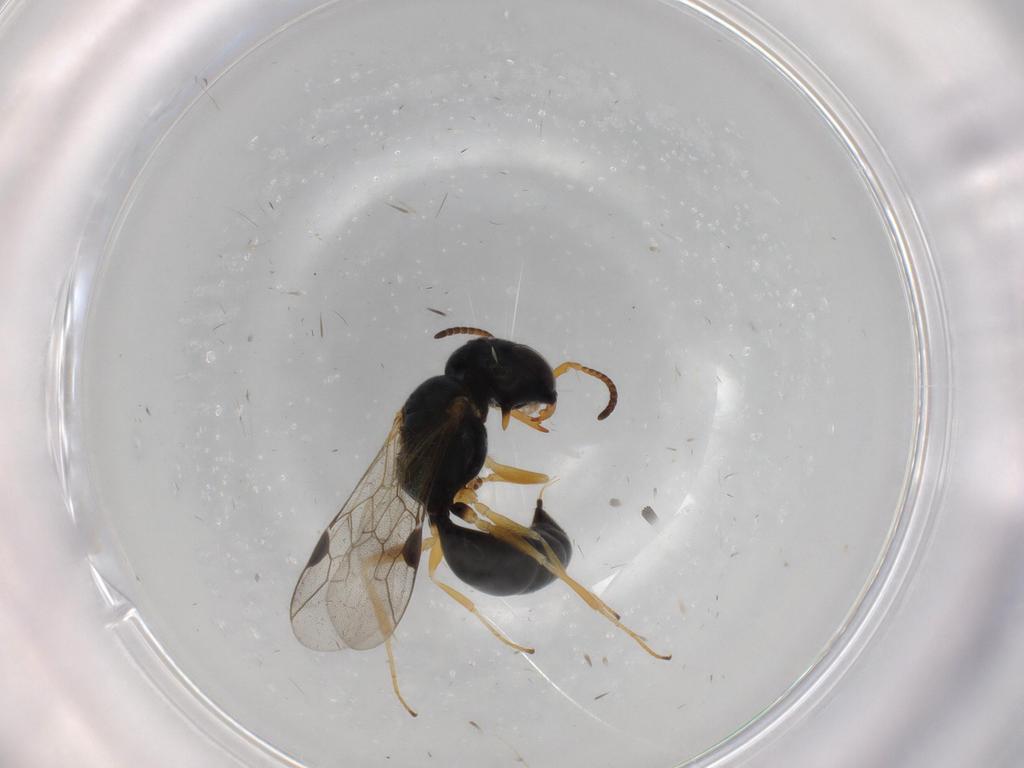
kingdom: Animalia
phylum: Arthropoda
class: Insecta
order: Hymenoptera
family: Pemphredonidae
